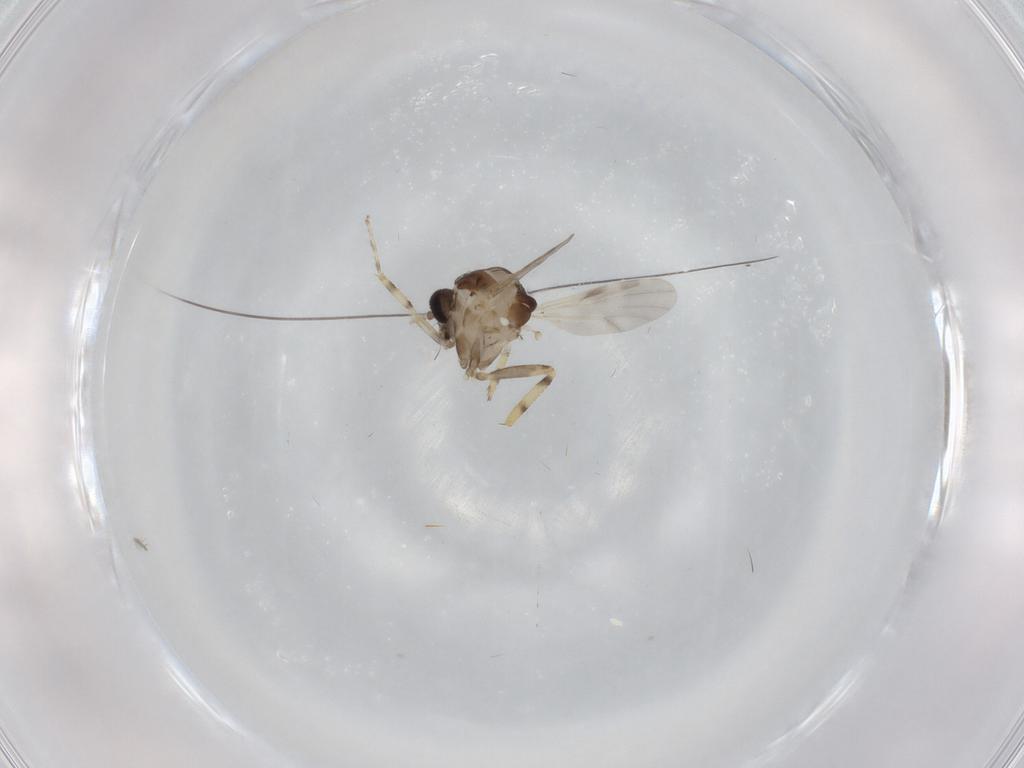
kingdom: Animalia
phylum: Arthropoda
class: Insecta
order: Diptera
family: Ceratopogonidae
